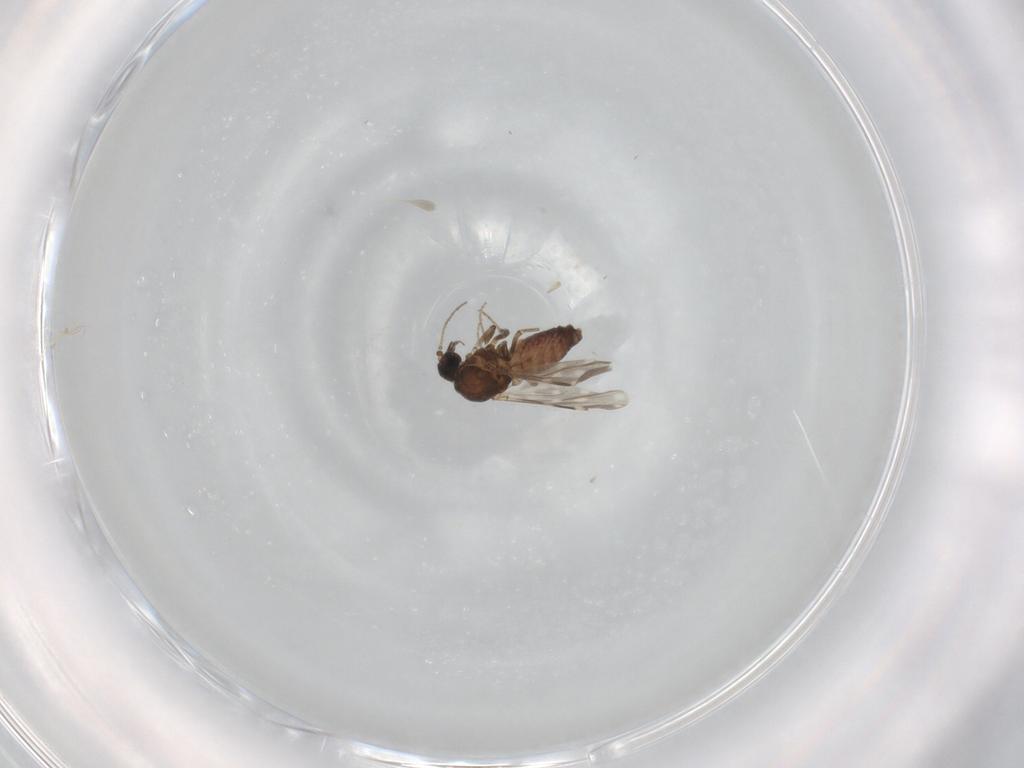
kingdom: Animalia
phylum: Arthropoda
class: Insecta
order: Diptera
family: Ceratopogonidae
